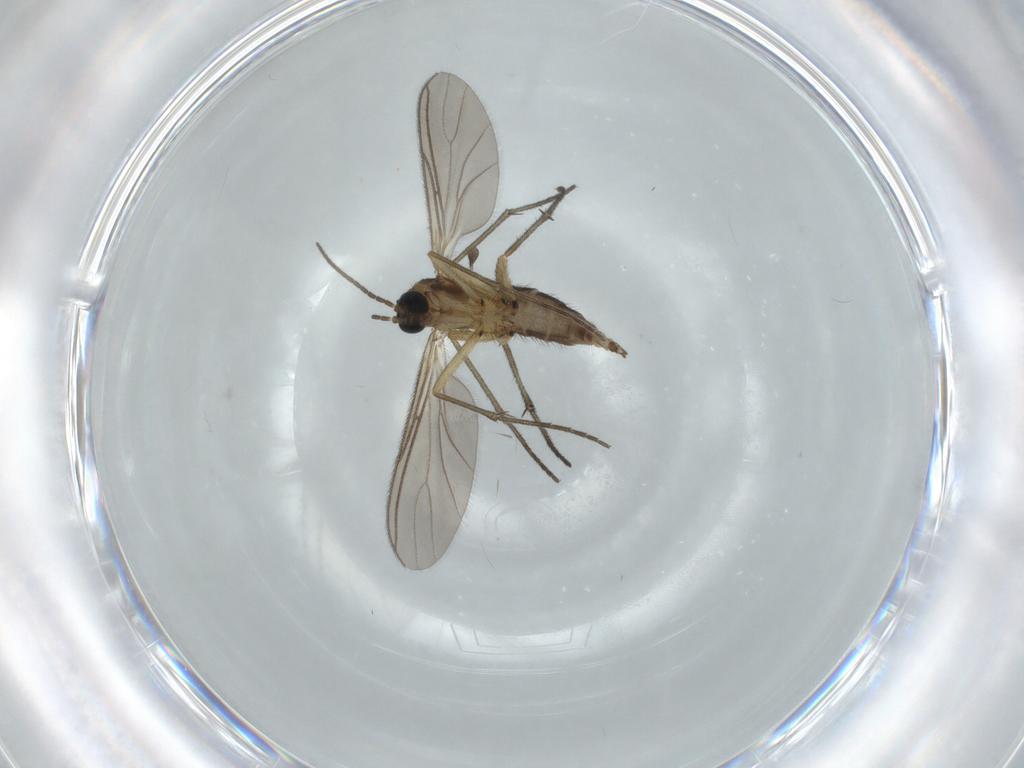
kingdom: Animalia
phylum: Arthropoda
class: Insecta
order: Diptera
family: Sciaridae
